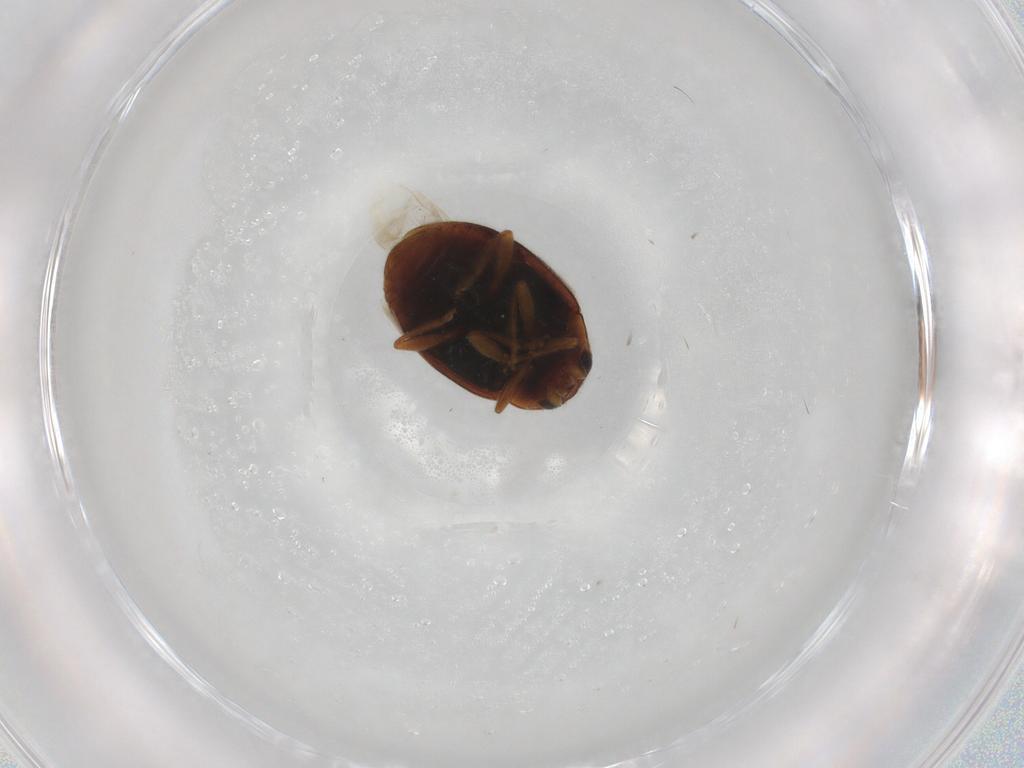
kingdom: Animalia
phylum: Arthropoda
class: Insecta
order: Coleoptera
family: Coccinellidae
